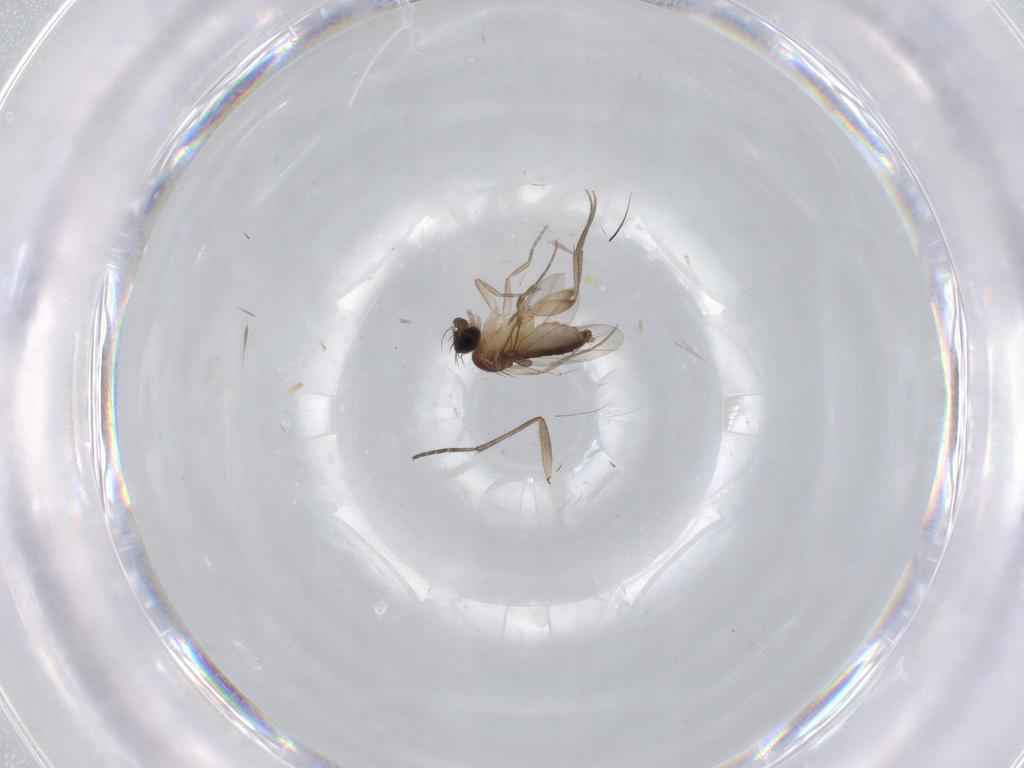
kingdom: Animalia
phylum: Arthropoda
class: Insecta
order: Diptera
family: Phoridae
